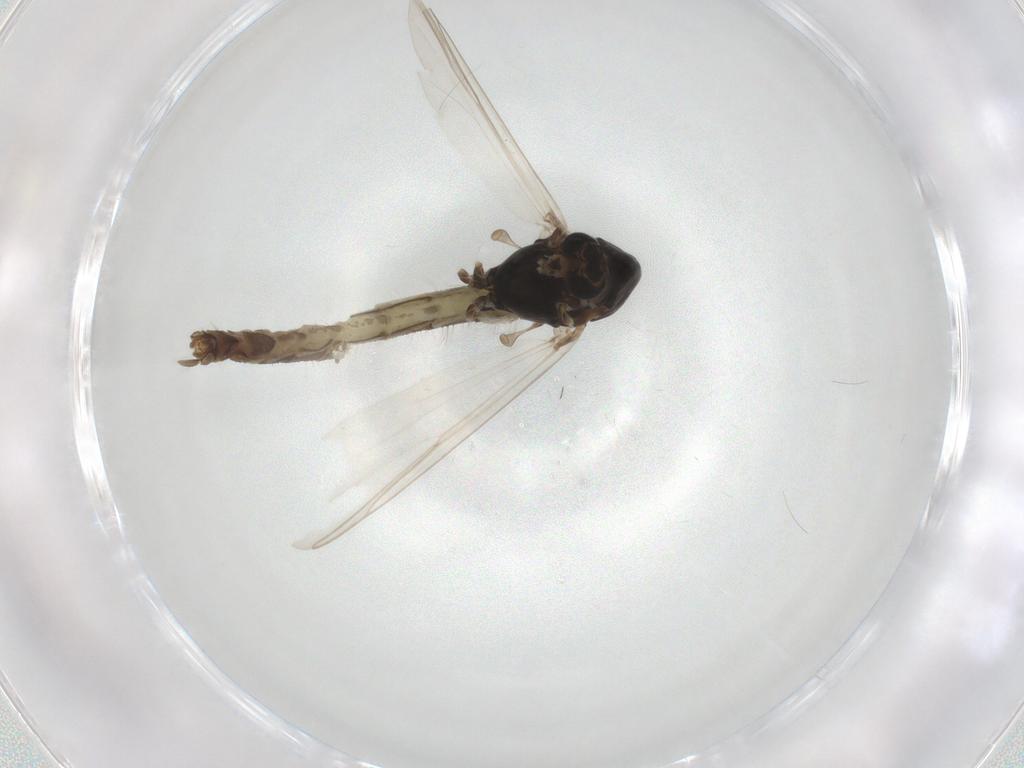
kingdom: Animalia
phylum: Arthropoda
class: Insecta
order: Diptera
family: Chironomidae
